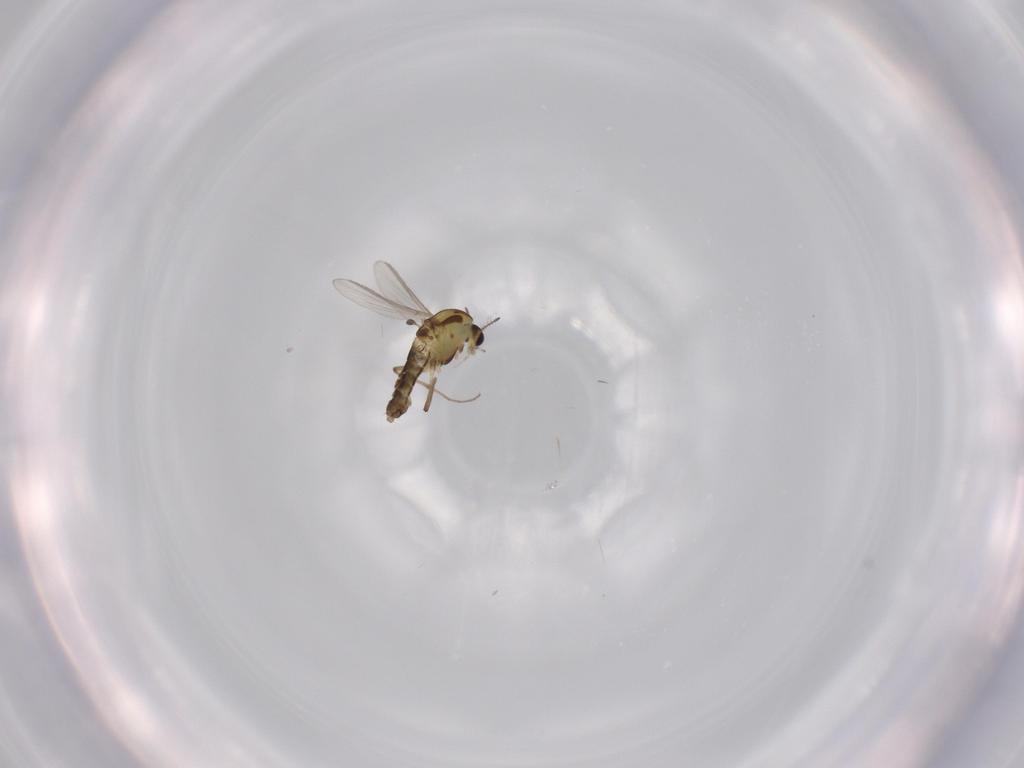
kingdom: Animalia
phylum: Arthropoda
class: Insecta
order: Diptera
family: Chironomidae
